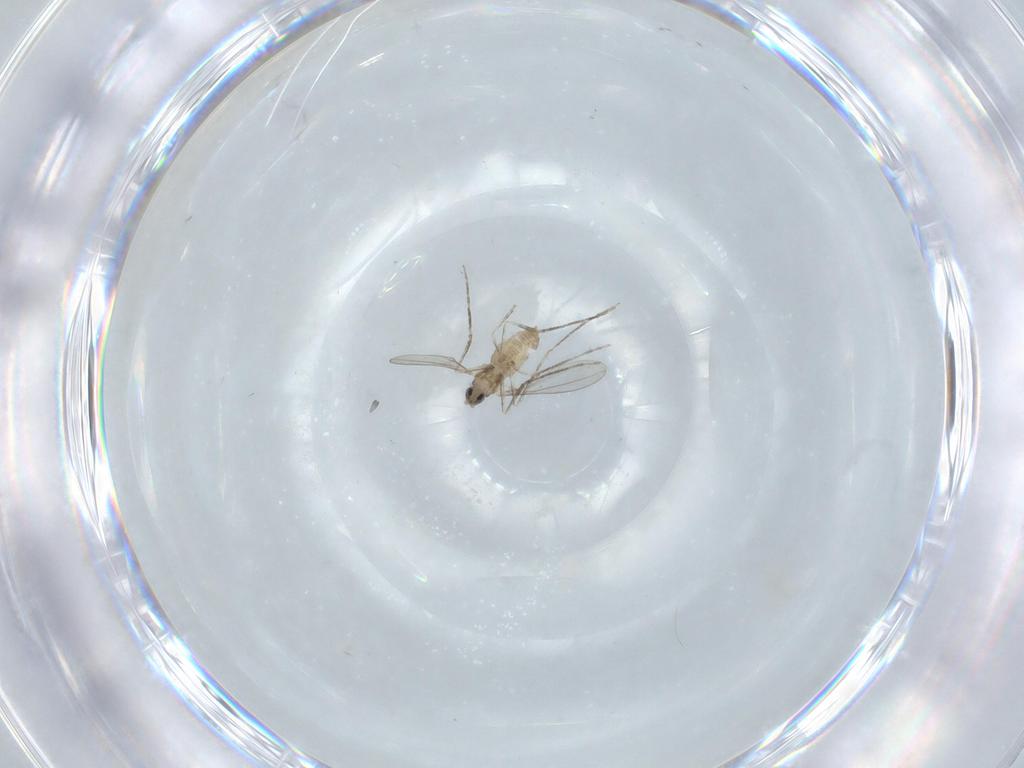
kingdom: Animalia
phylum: Arthropoda
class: Insecta
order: Diptera
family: Cecidomyiidae
